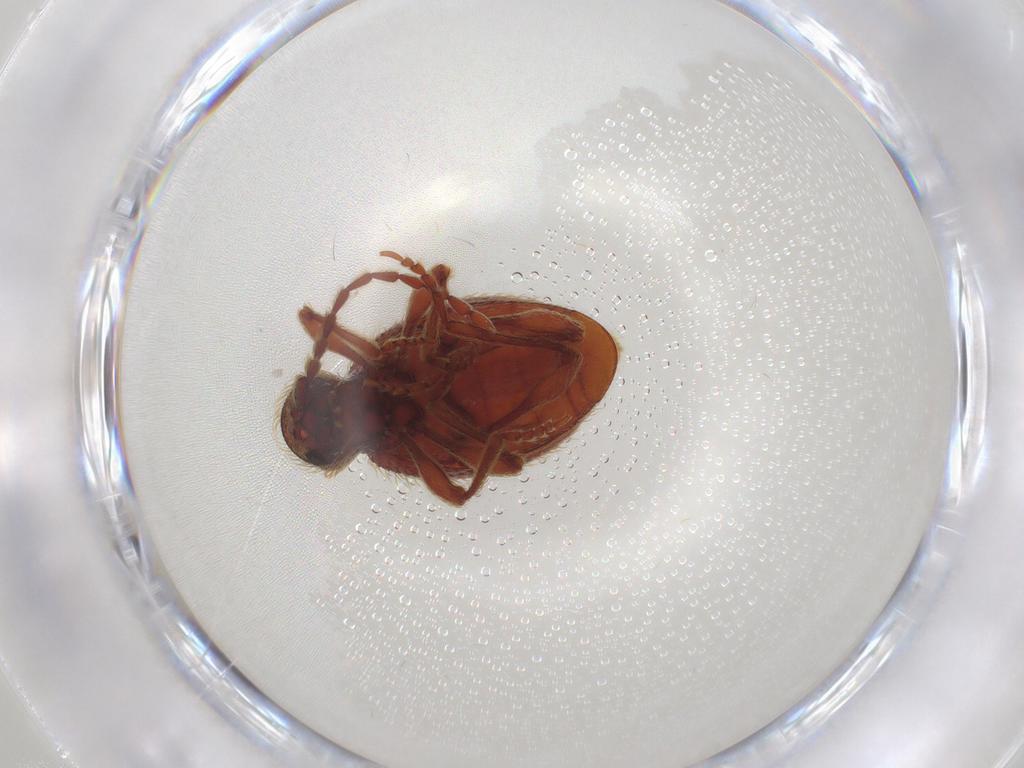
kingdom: Animalia
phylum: Arthropoda
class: Insecta
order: Coleoptera
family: Ptinidae
